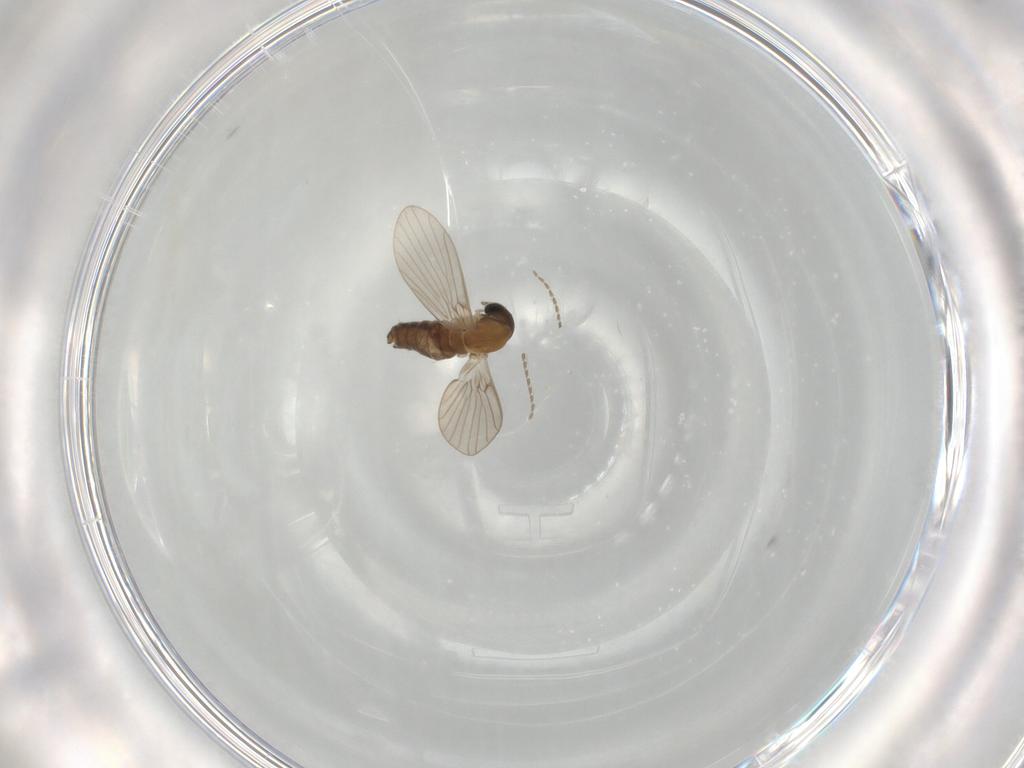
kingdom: Animalia
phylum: Arthropoda
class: Insecta
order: Diptera
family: Psychodidae
